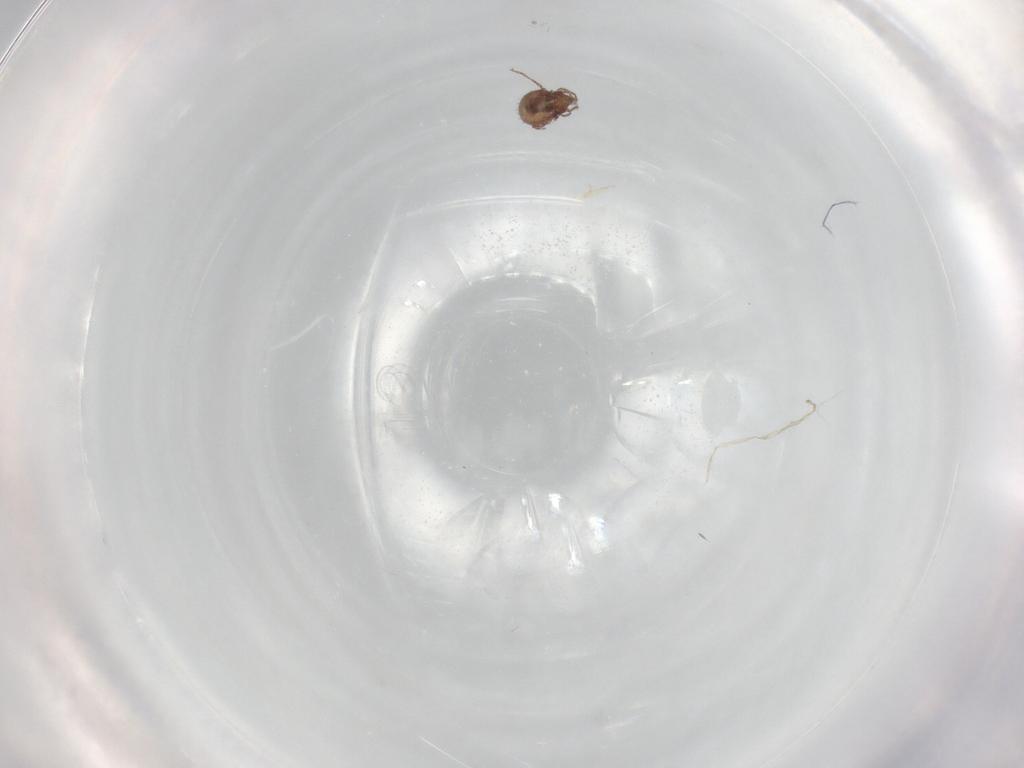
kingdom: Animalia
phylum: Arthropoda
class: Arachnida
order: Sarcoptiformes
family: Oribatulidae
